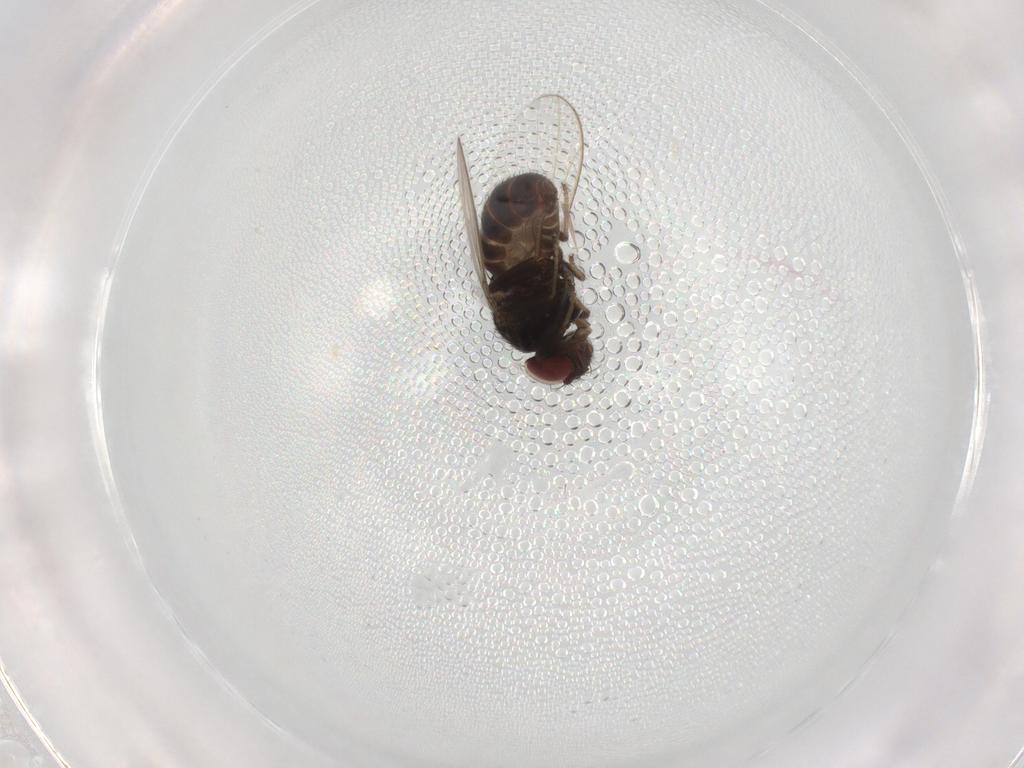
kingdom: Animalia
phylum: Arthropoda
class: Insecta
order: Diptera
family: Drosophilidae
